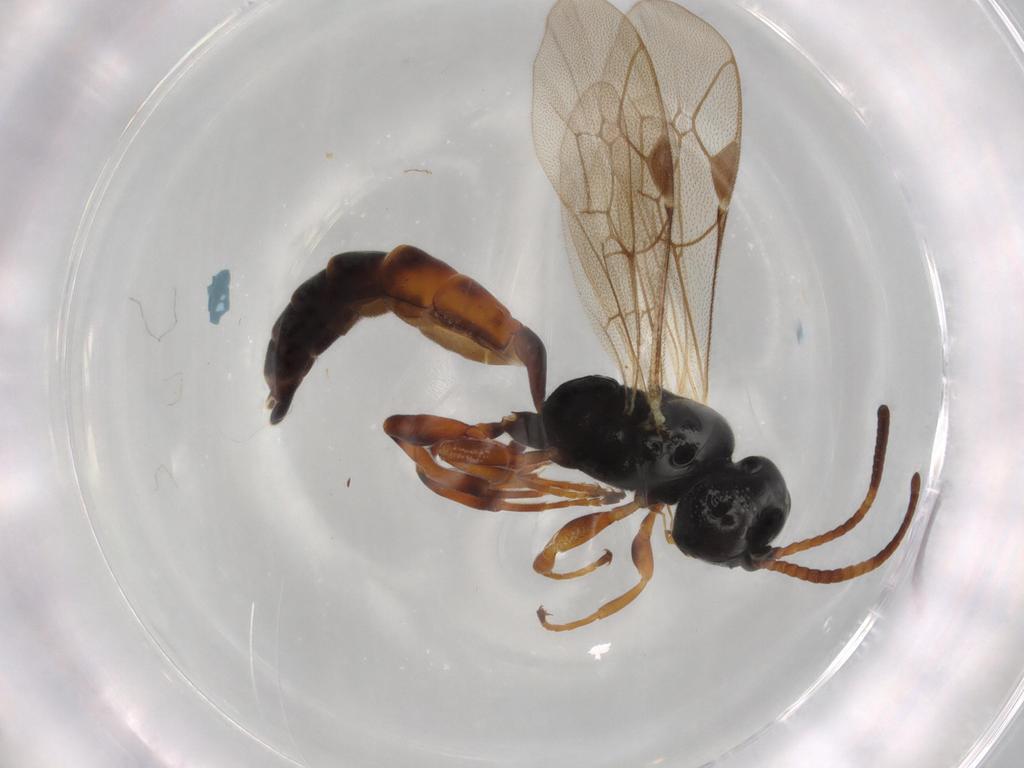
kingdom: Animalia
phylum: Arthropoda
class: Insecta
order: Hymenoptera
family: Ichneumonidae
